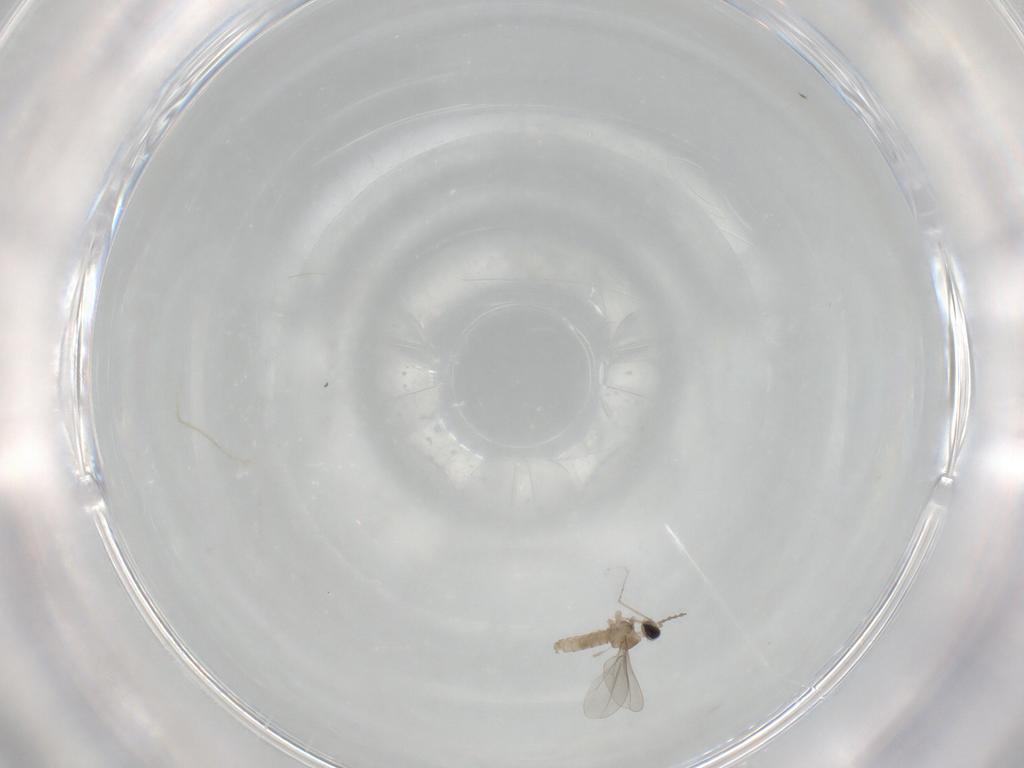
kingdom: Animalia
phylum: Arthropoda
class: Insecta
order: Diptera
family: Cecidomyiidae
